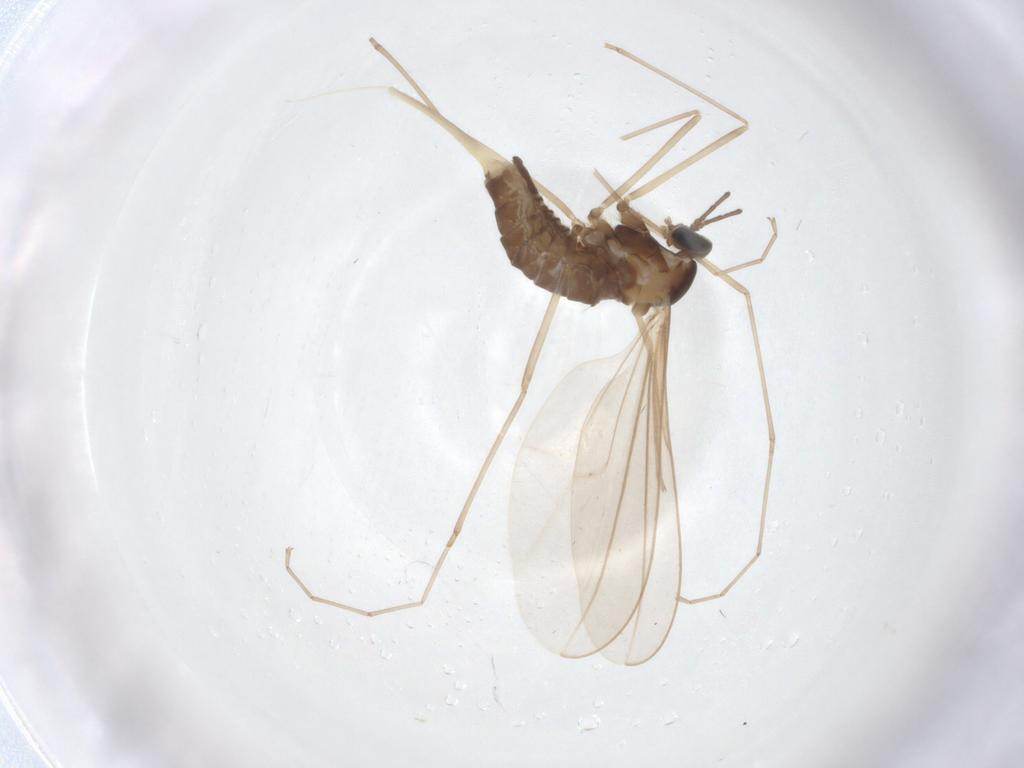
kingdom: Animalia
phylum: Arthropoda
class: Insecta
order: Diptera
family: Cecidomyiidae
